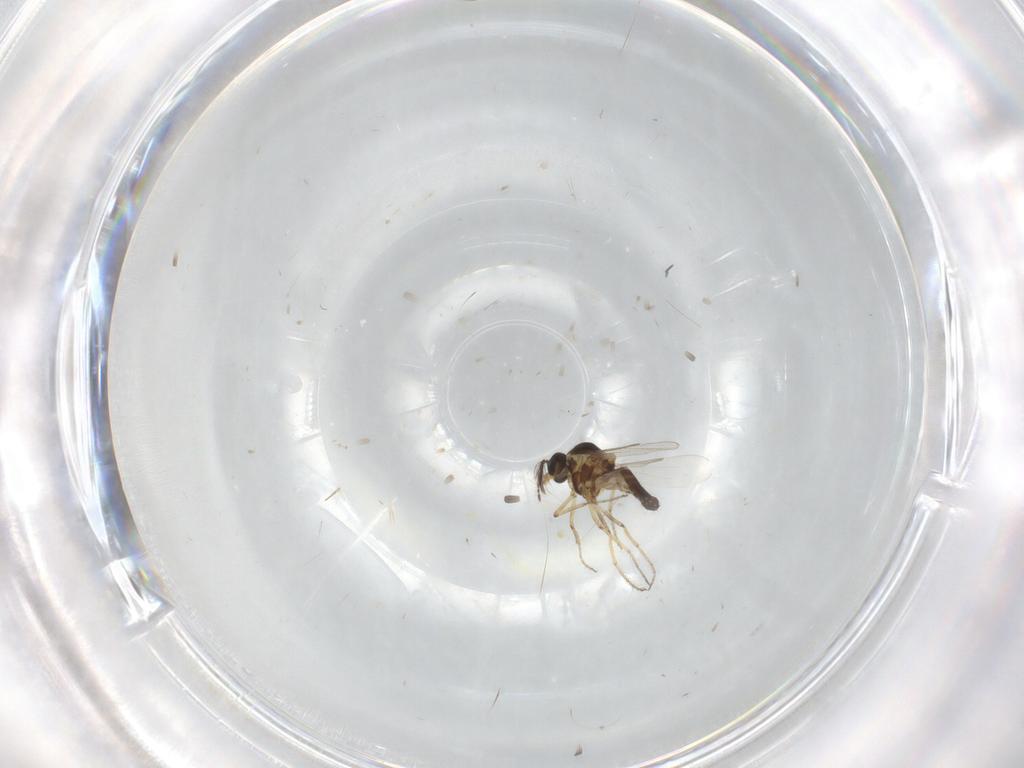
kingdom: Animalia
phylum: Arthropoda
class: Insecta
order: Diptera
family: Ceratopogonidae
